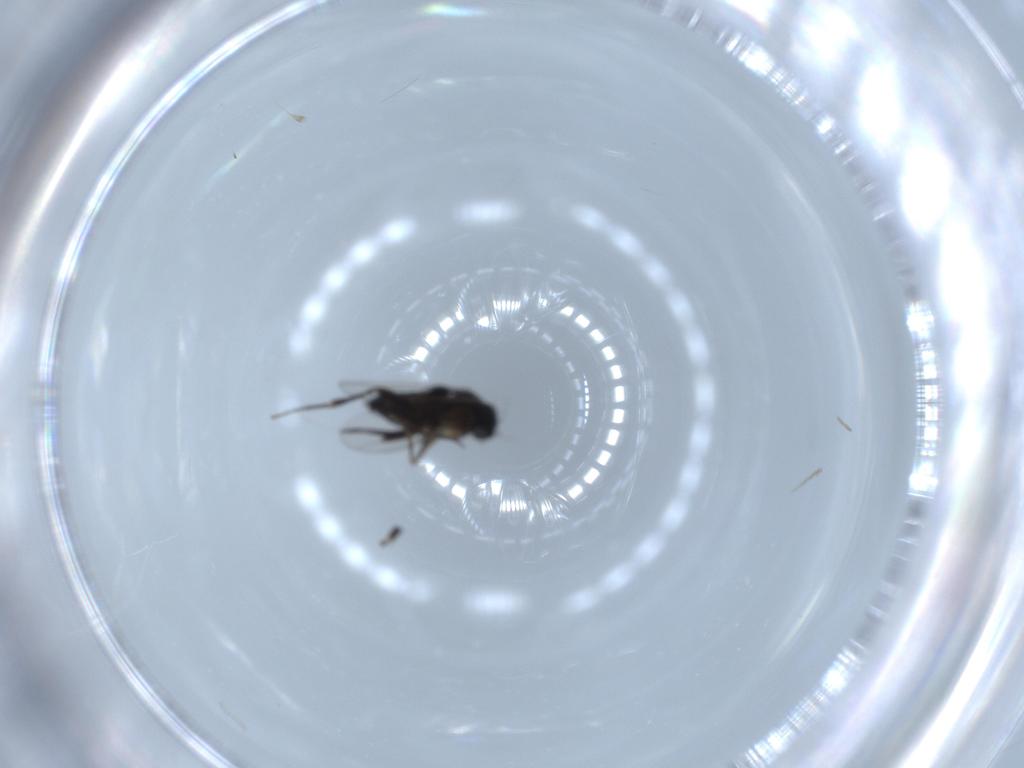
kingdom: Animalia
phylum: Arthropoda
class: Insecta
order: Diptera
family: Phoridae
